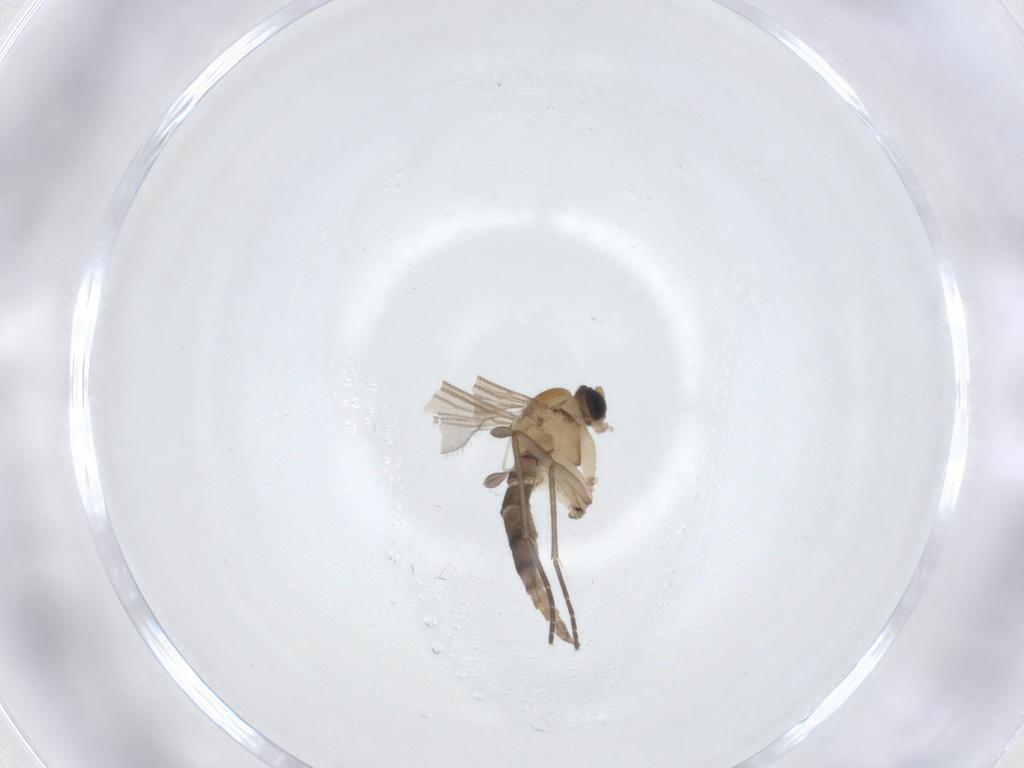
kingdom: Animalia
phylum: Arthropoda
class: Insecta
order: Diptera
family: Sciaridae
